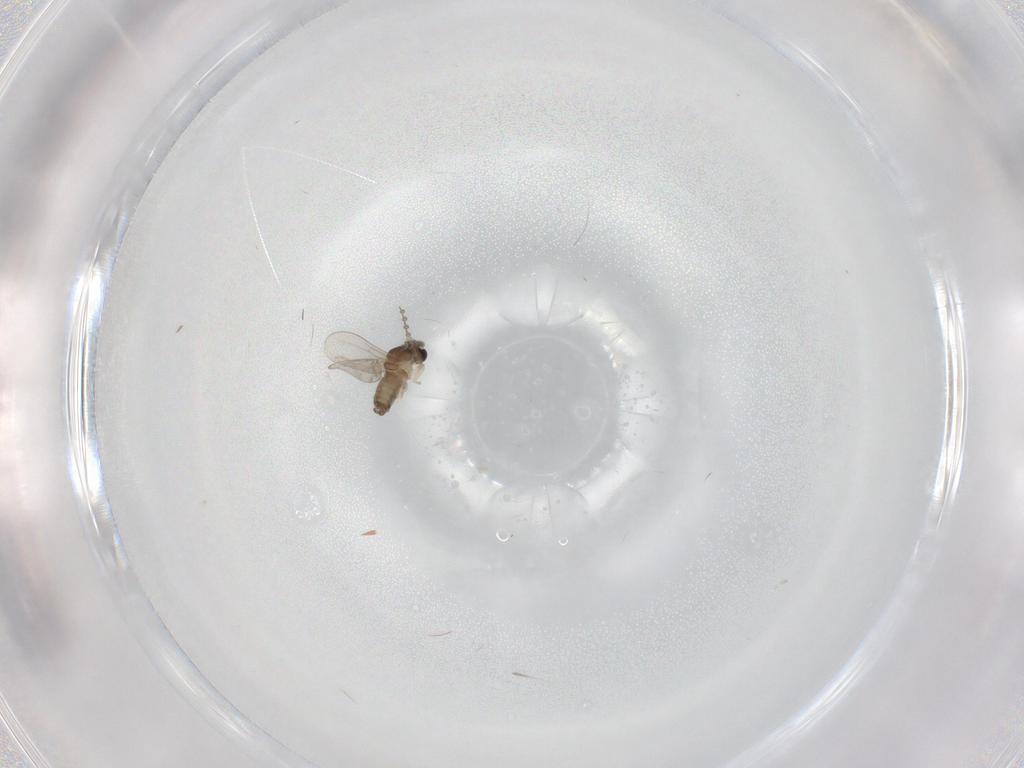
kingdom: Animalia
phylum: Arthropoda
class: Insecta
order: Diptera
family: Cecidomyiidae
